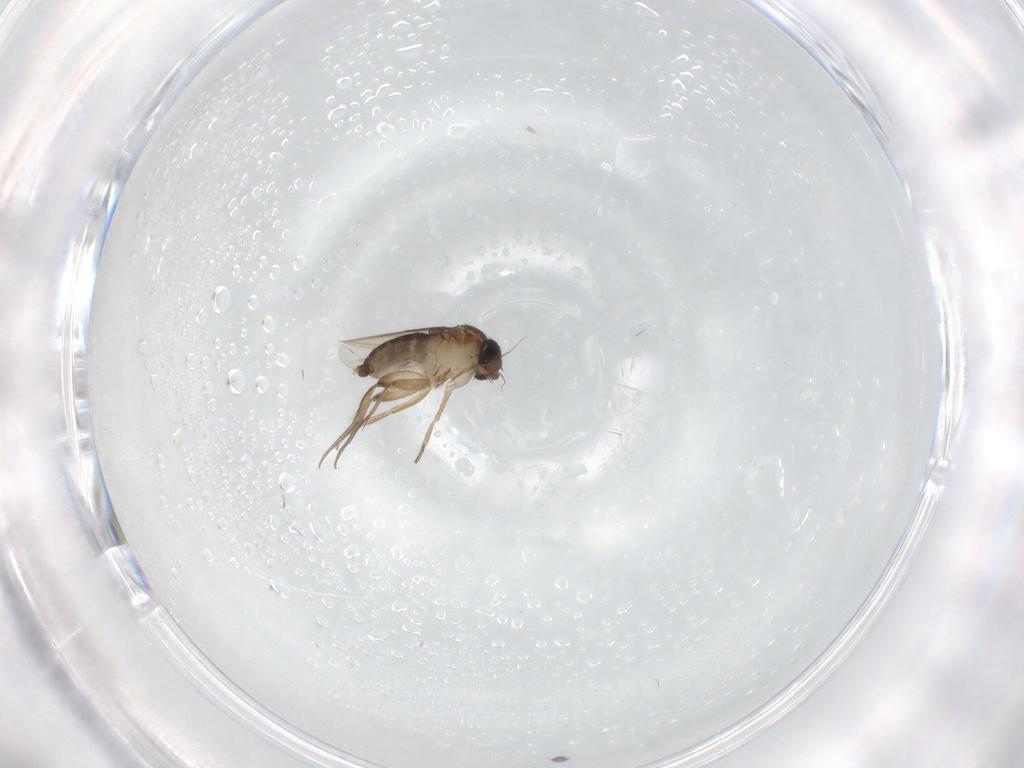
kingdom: Animalia
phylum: Arthropoda
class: Insecta
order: Diptera
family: Phoridae
